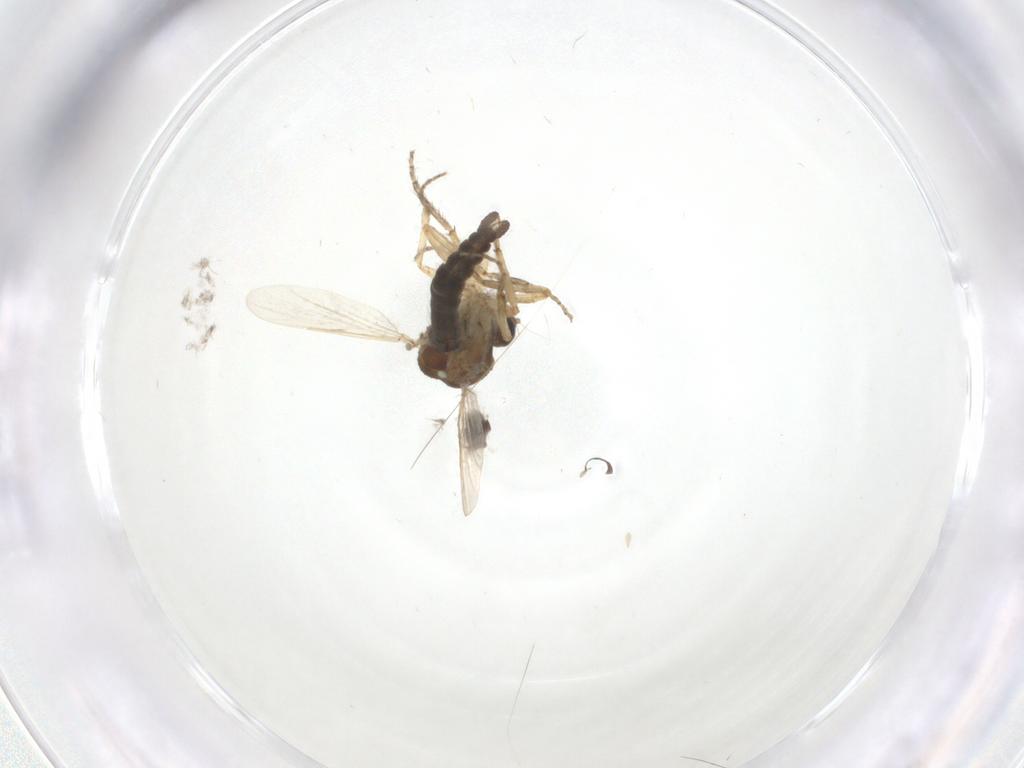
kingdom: Animalia
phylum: Arthropoda
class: Insecta
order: Diptera
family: Ceratopogonidae
